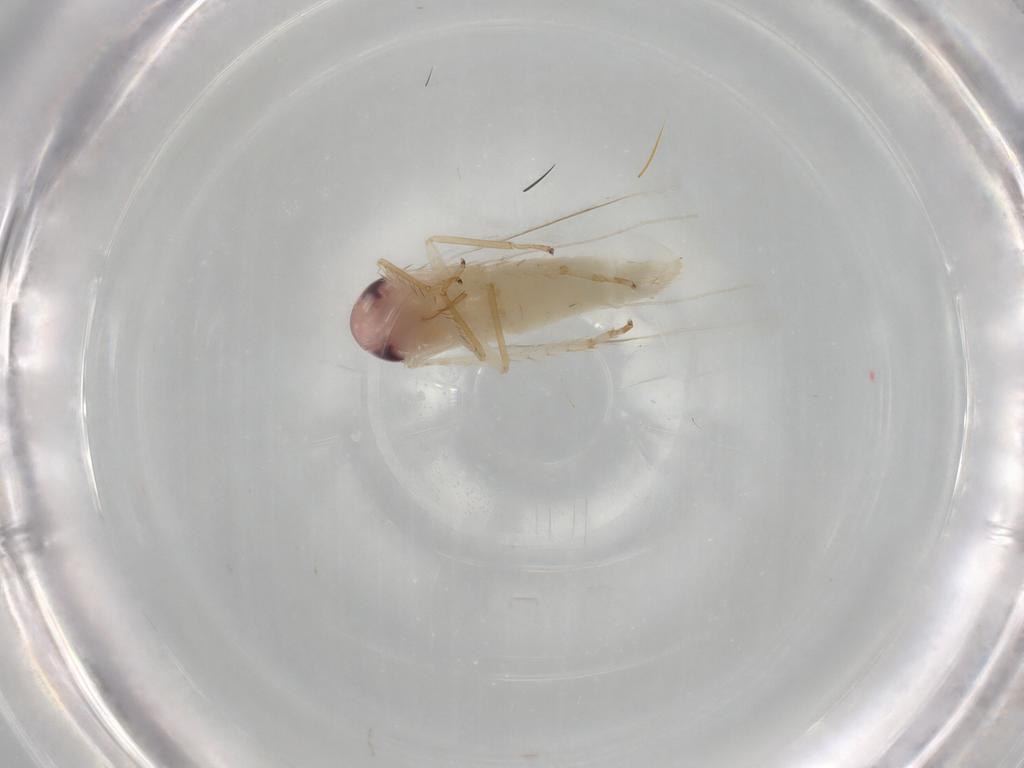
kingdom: Animalia
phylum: Arthropoda
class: Insecta
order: Hemiptera
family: Cicadellidae
